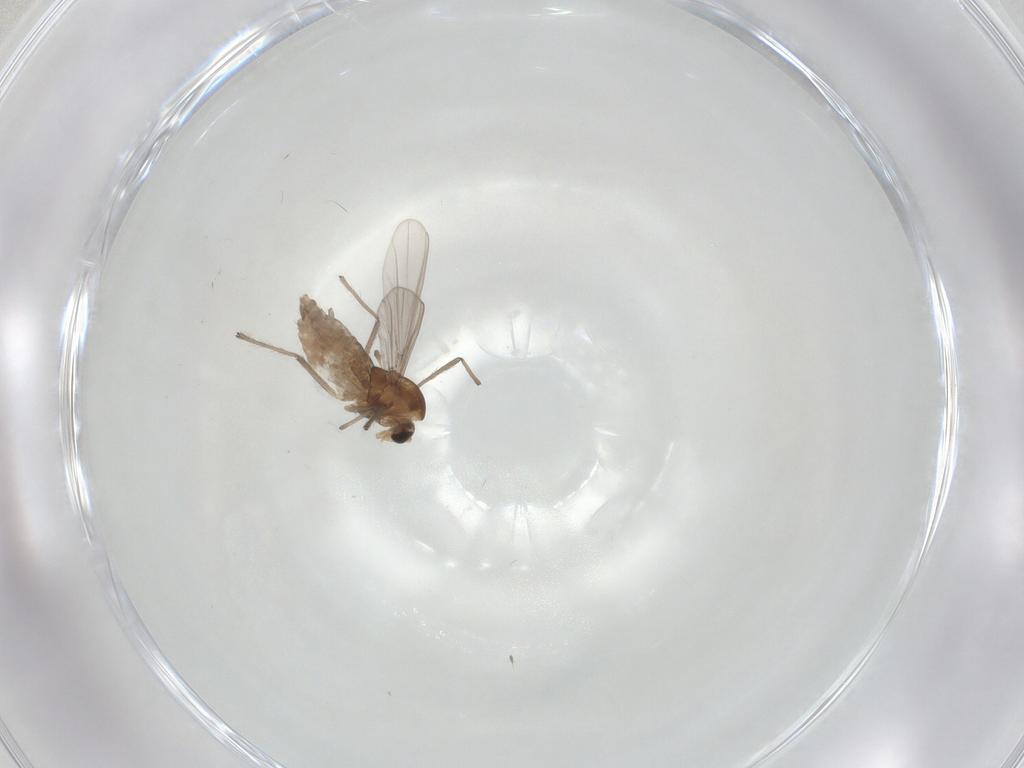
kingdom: Animalia
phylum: Arthropoda
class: Insecta
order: Diptera
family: Chironomidae
